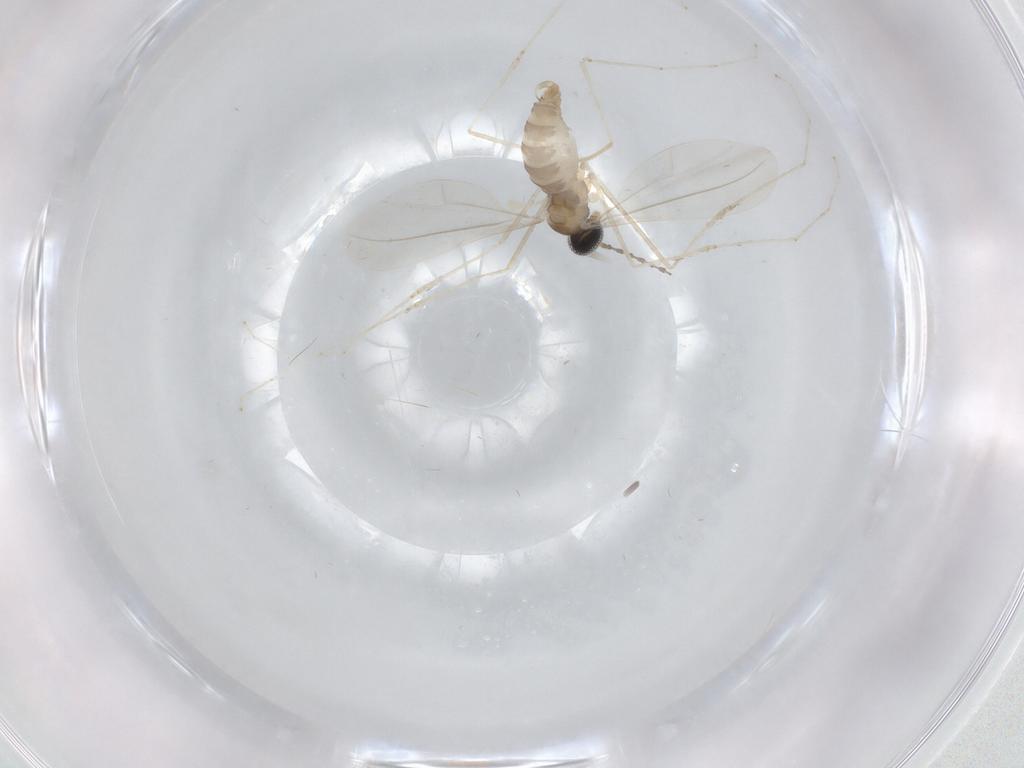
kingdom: Animalia
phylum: Arthropoda
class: Insecta
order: Diptera
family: Cecidomyiidae
